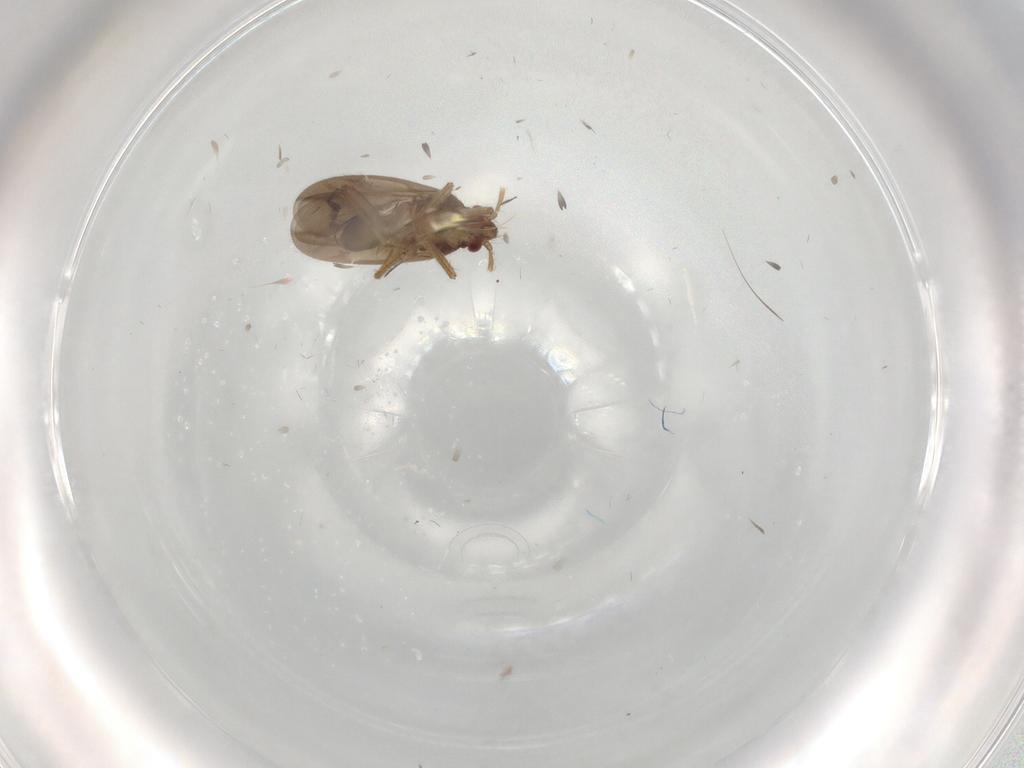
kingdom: Animalia
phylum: Arthropoda
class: Insecta
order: Hemiptera
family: Ceratocombidae
